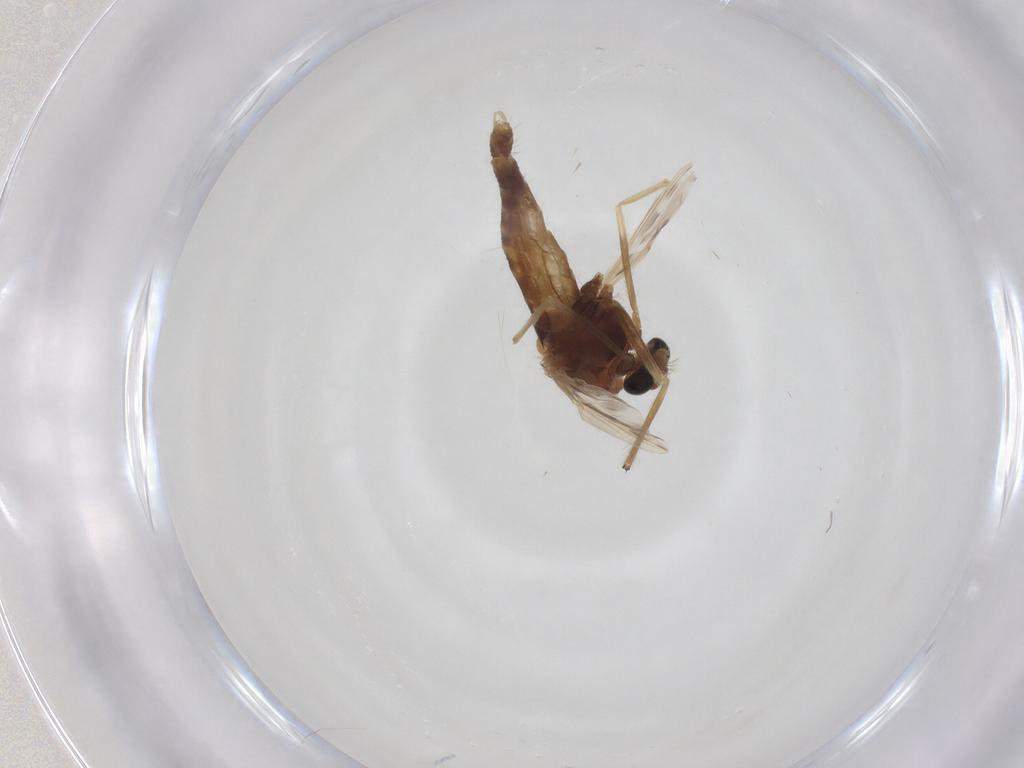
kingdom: Animalia
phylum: Arthropoda
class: Insecta
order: Diptera
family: Chironomidae
